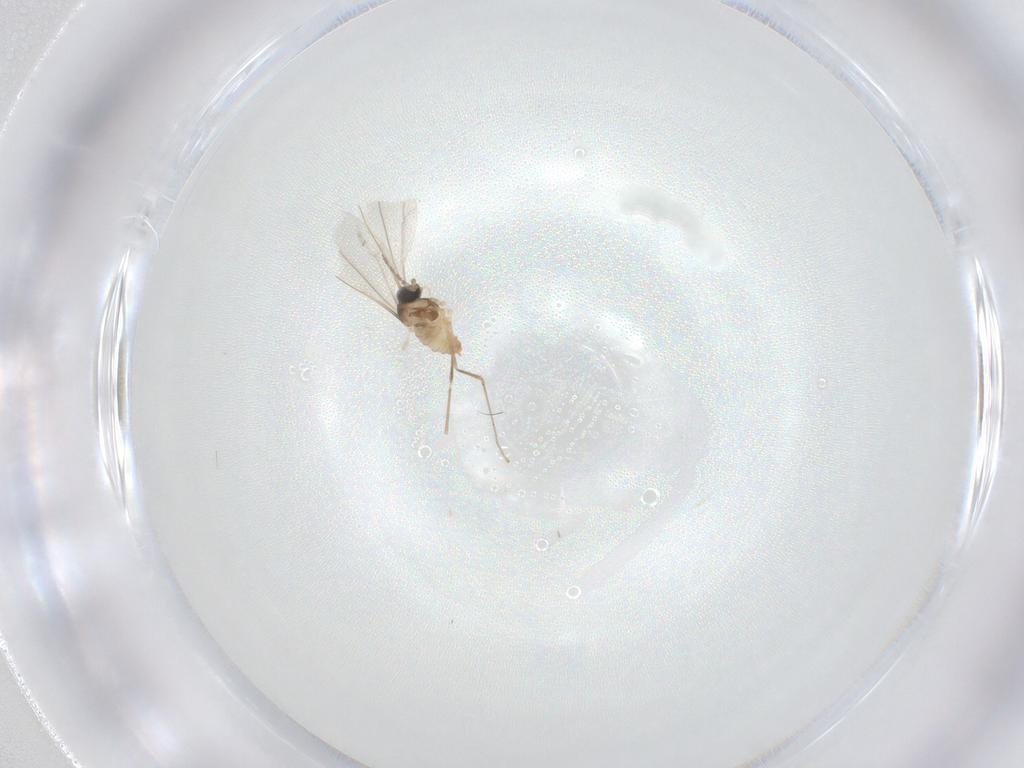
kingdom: Animalia
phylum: Arthropoda
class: Insecta
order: Diptera
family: Cecidomyiidae
